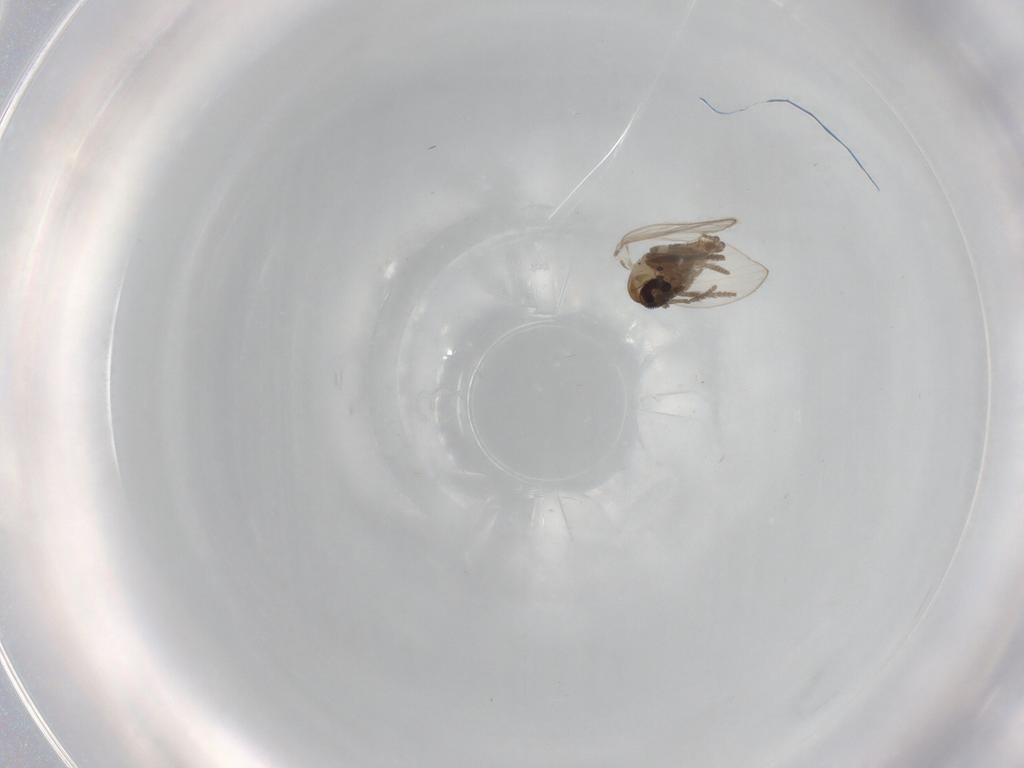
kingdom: Animalia
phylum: Arthropoda
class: Insecta
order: Diptera
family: Psychodidae
